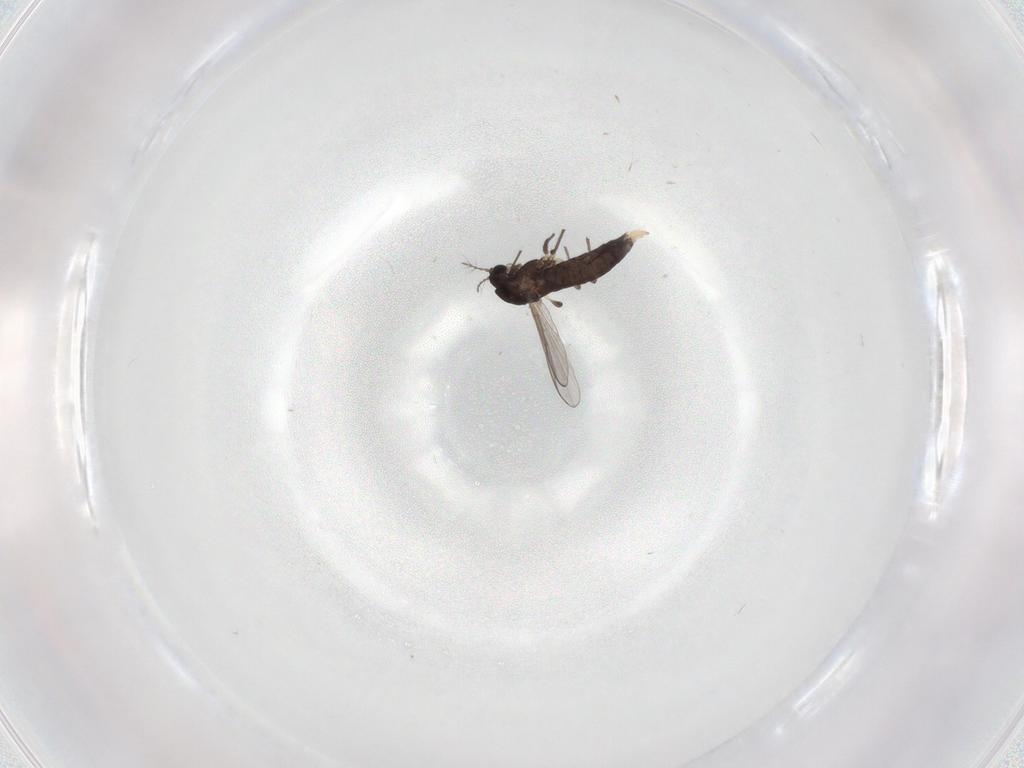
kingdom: Animalia
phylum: Arthropoda
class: Insecta
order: Diptera
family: Chironomidae
